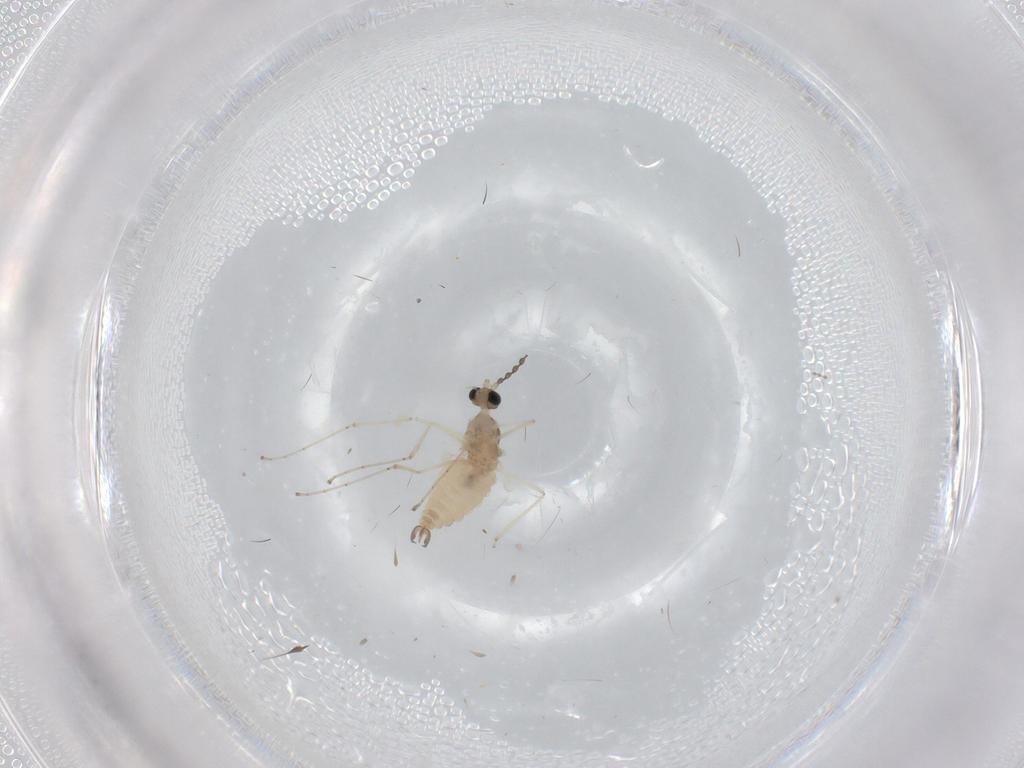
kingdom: Animalia
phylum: Arthropoda
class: Insecta
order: Diptera
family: Cecidomyiidae
